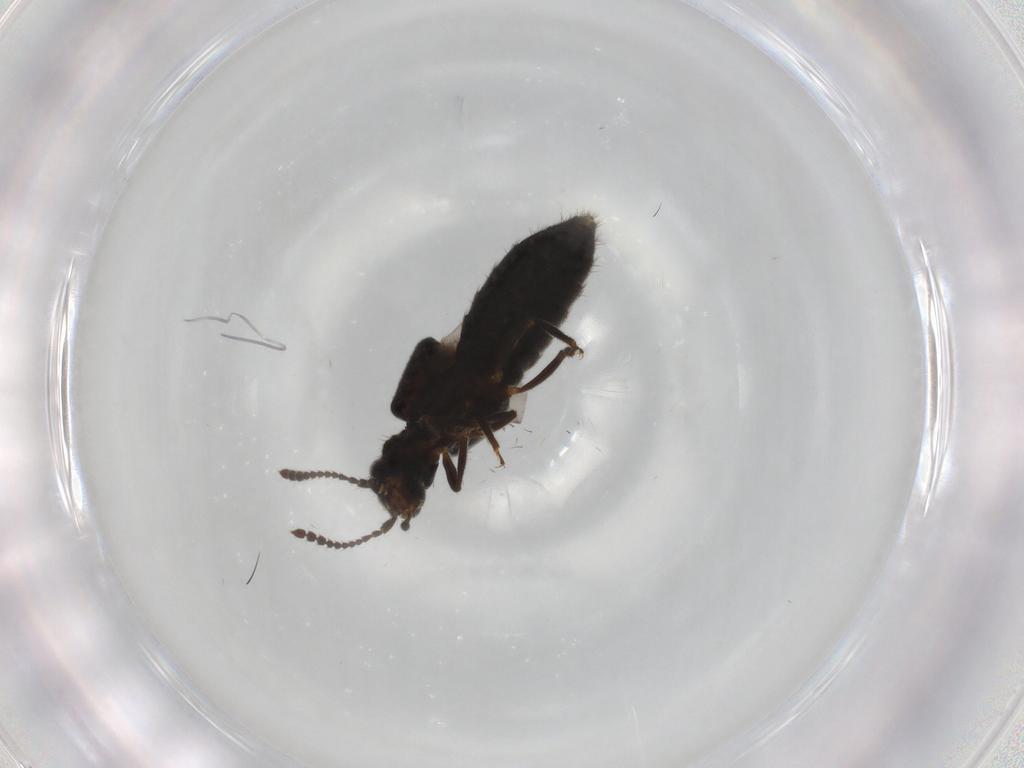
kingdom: Animalia
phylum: Arthropoda
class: Insecta
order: Coleoptera
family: Staphylinidae
